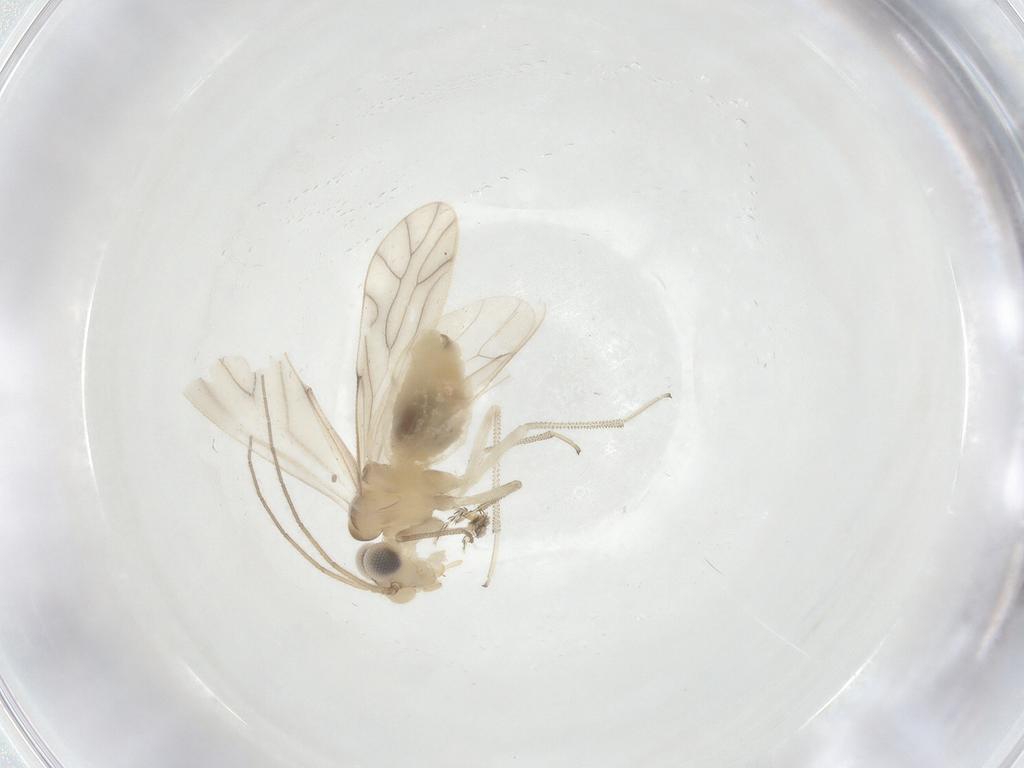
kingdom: Animalia
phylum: Arthropoda
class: Insecta
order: Psocodea
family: Caeciliusidae
